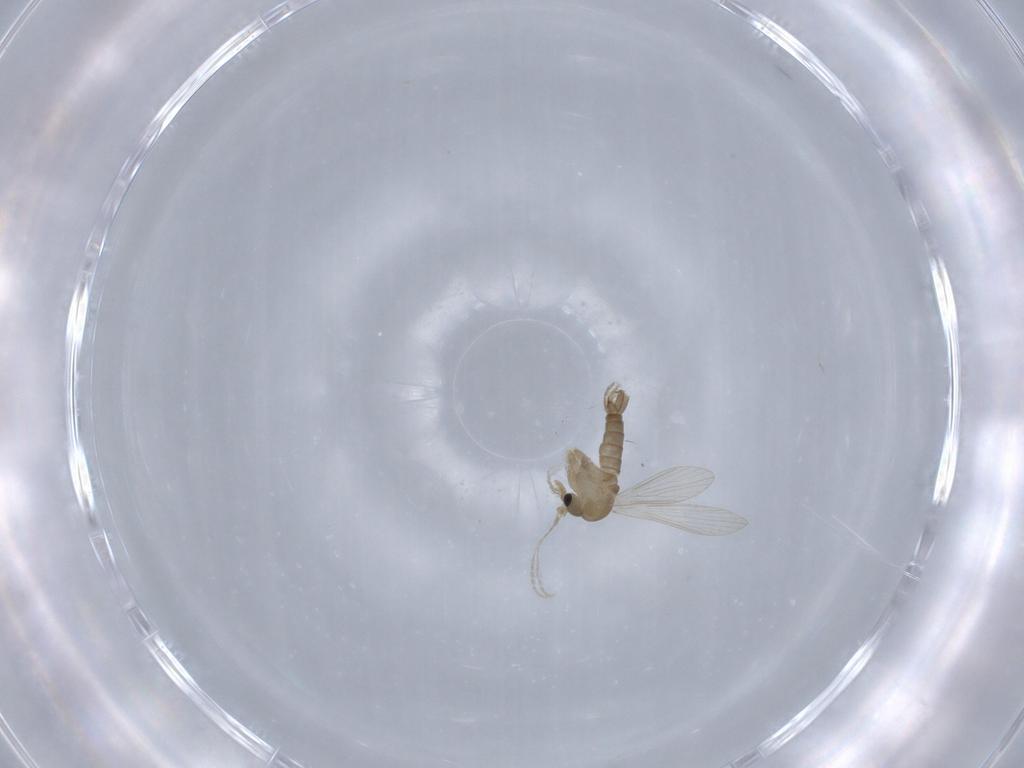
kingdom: Animalia
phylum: Arthropoda
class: Insecta
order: Diptera
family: Psychodidae
